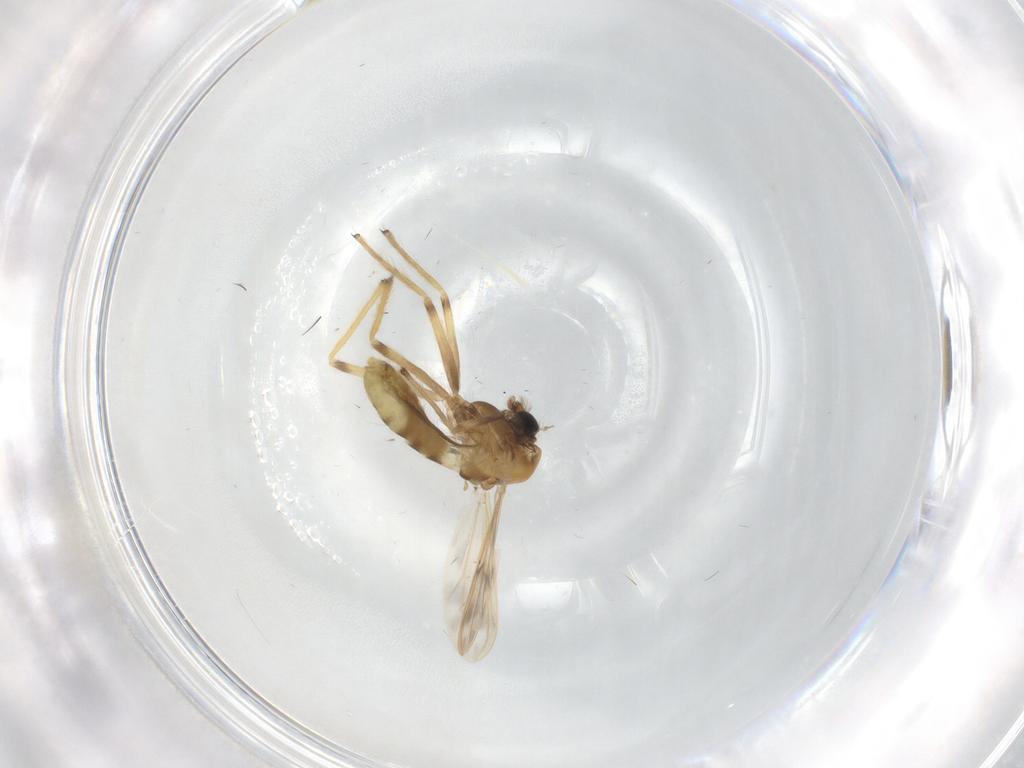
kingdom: Animalia
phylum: Arthropoda
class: Insecta
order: Diptera
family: Tabanidae
